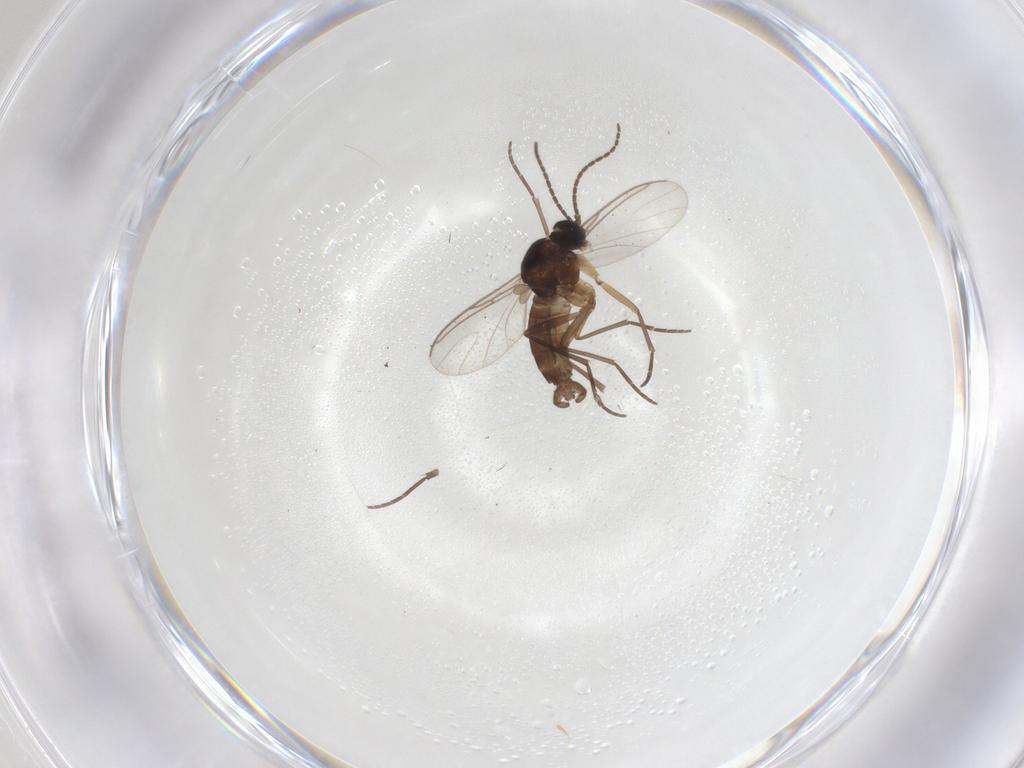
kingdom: Animalia
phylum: Arthropoda
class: Insecta
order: Diptera
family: Sciaridae
